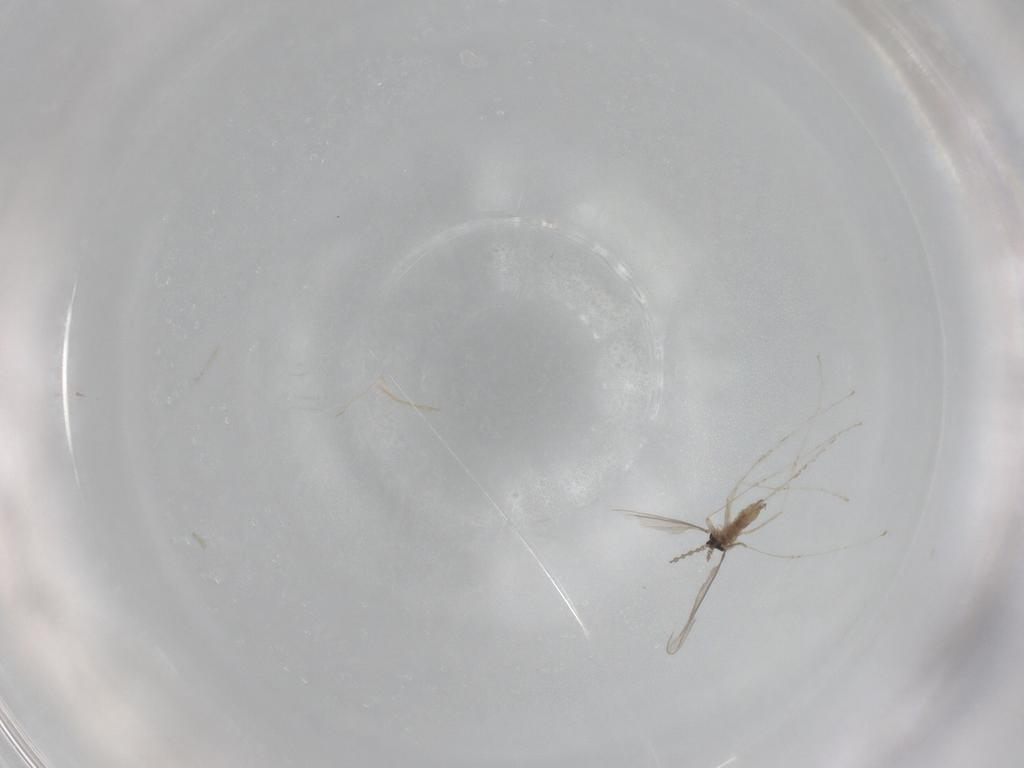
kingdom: Animalia
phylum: Arthropoda
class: Insecta
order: Diptera
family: Cecidomyiidae
